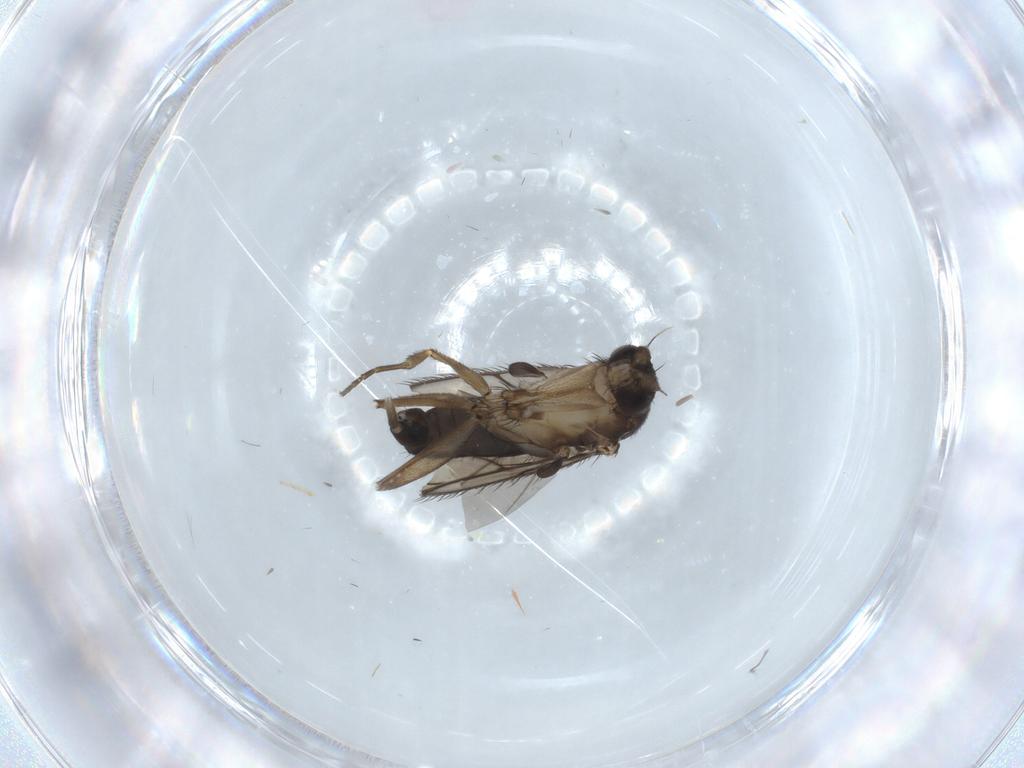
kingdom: Animalia
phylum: Arthropoda
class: Insecta
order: Diptera
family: Phoridae
